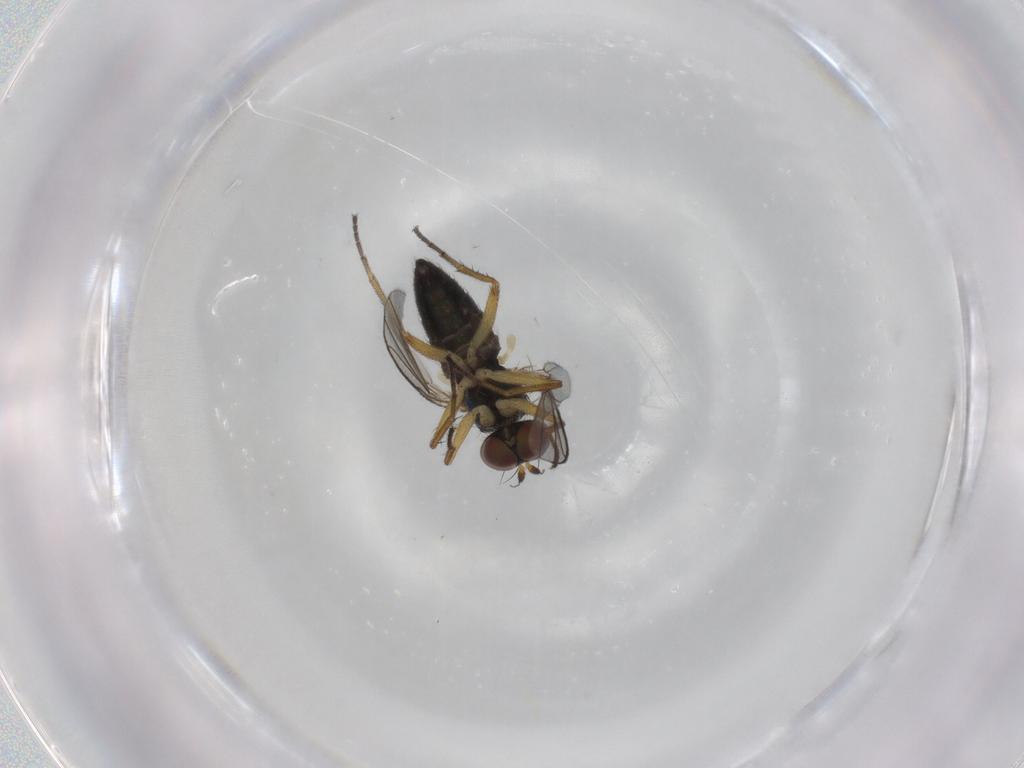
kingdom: Animalia
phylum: Arthropoda
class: Insecta
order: Diptera
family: Dolichopodidae
